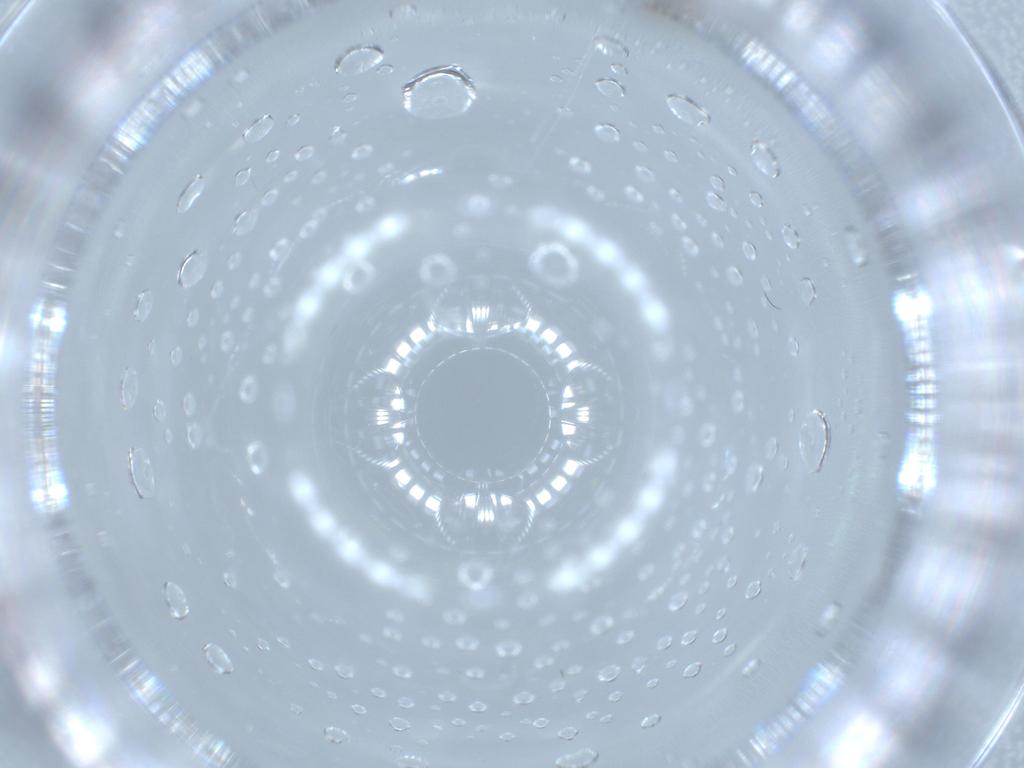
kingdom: Animalia
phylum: Arthropoda
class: Insecta
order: Diptera
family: Cecidomyiidae
